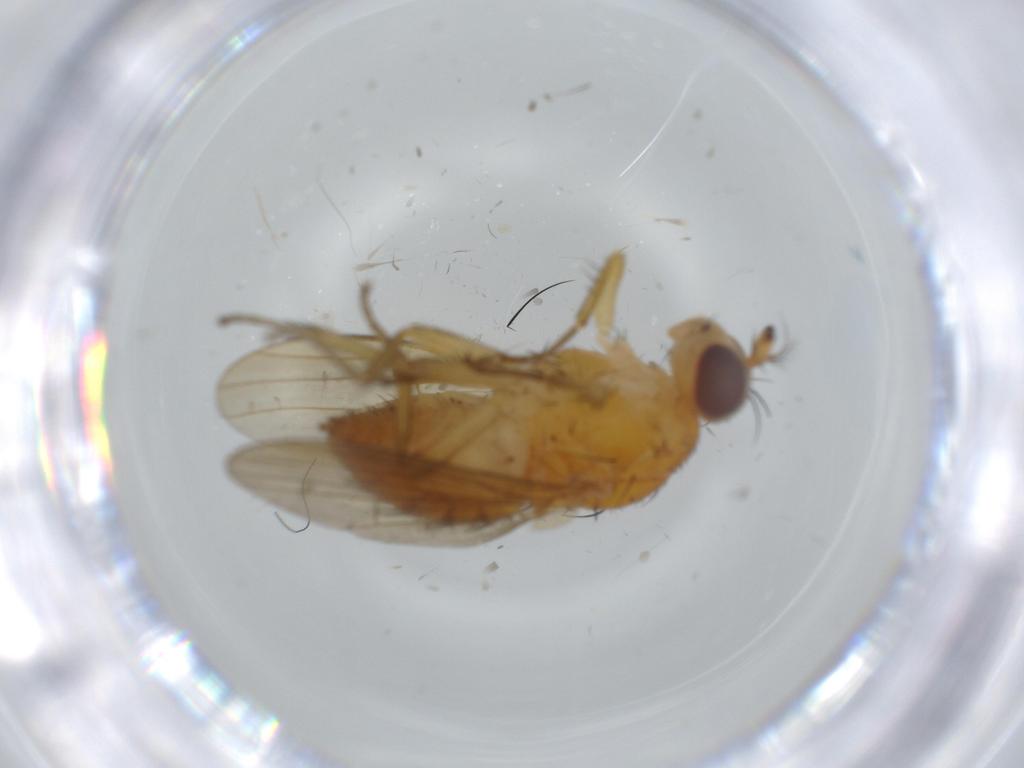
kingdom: Animalia
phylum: Arthropoda
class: Insecta
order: Diptera
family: Lauxaniidae
